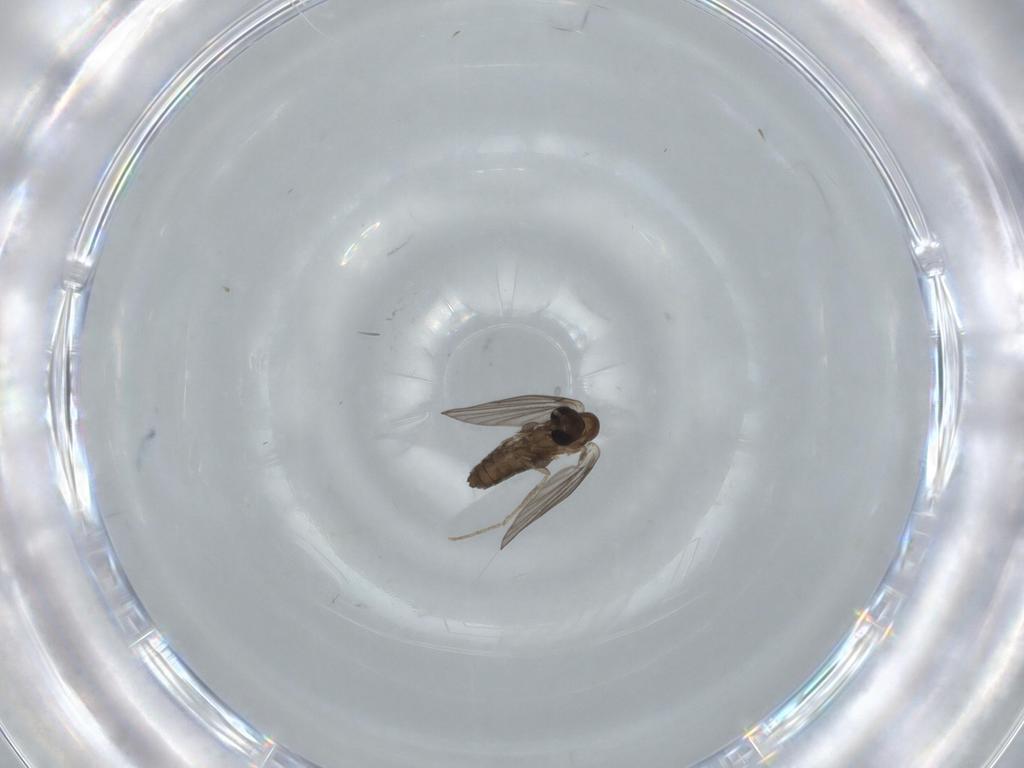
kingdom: Animalia
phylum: Arthropoda
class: Insecta
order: Diptera
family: Psychodidae
